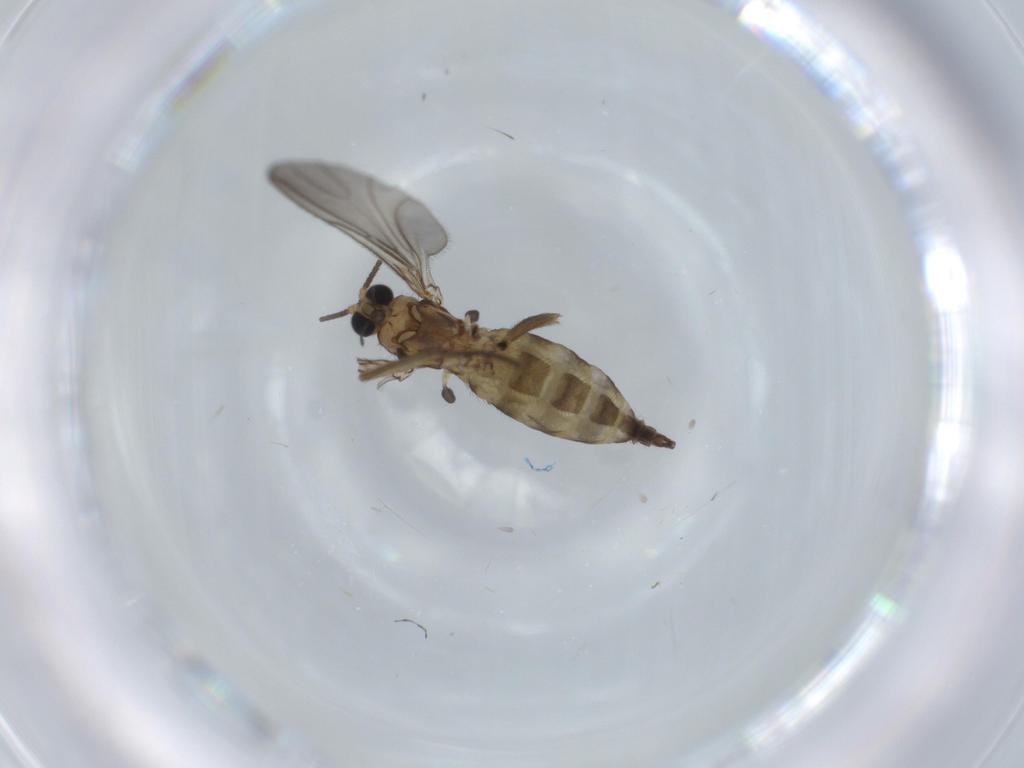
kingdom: Animalia
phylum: Arthropoda
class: Insecta
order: Diptera
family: Sciaridae
